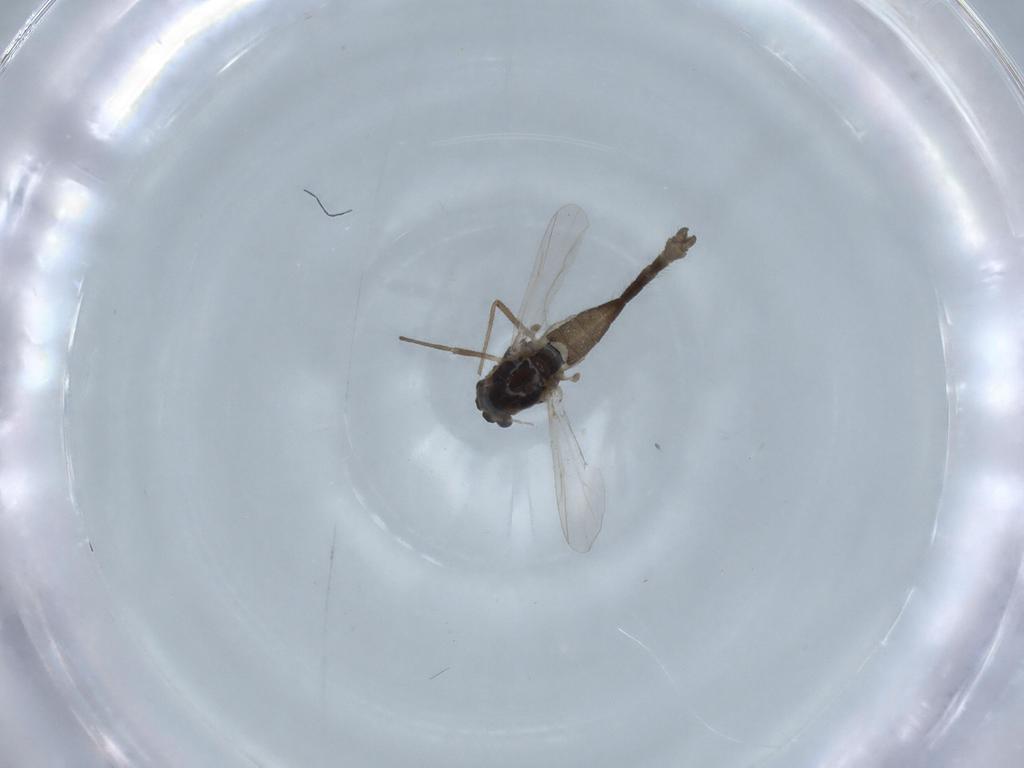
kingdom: Animalia
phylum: Arthropoda
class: Insecta
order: Diptera
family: Cecidomyiidae
